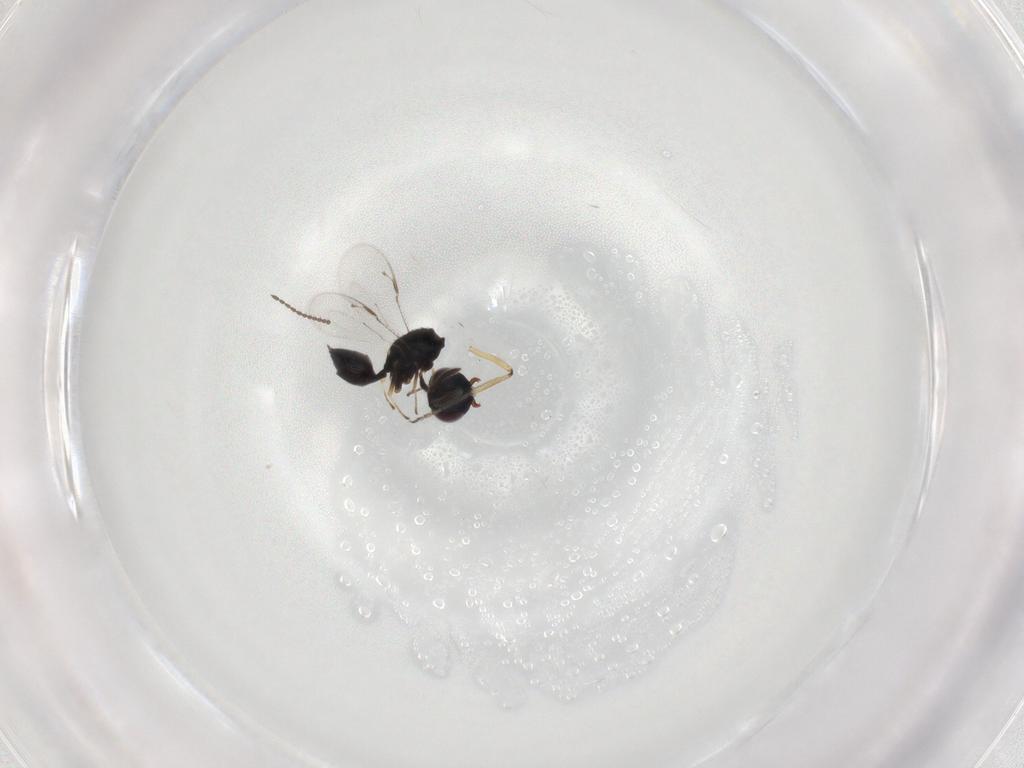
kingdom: Animalia
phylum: Arthropoda
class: Insecta
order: Hymenoptera
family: Pteromalidae
